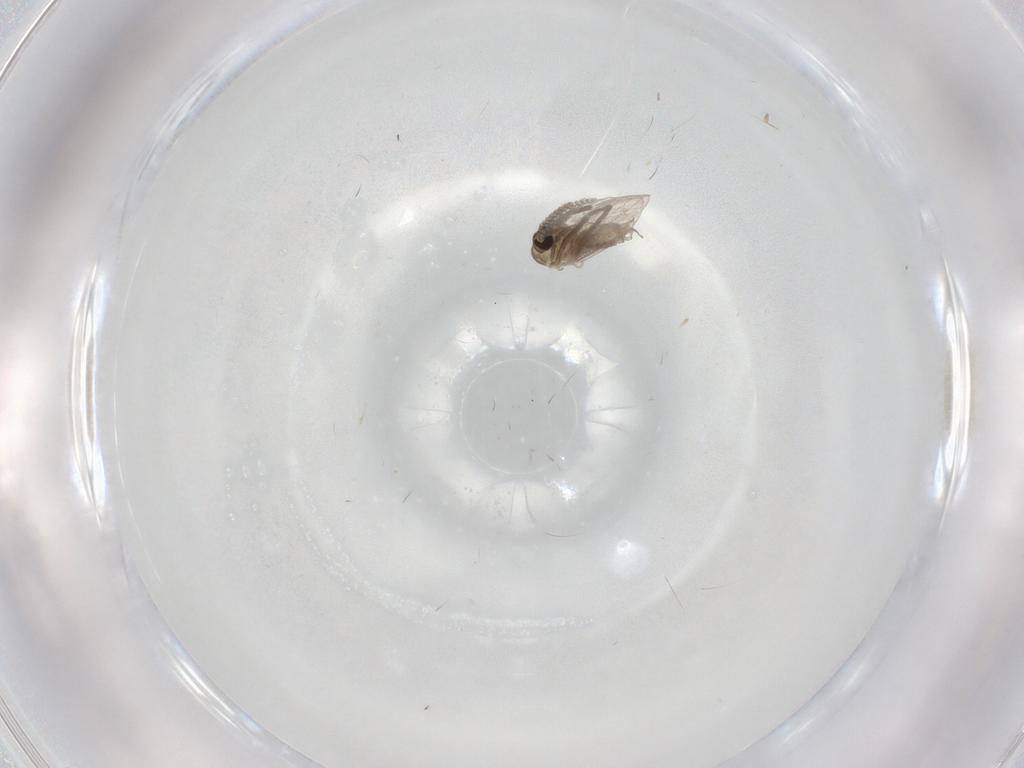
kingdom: Animalia
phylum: Arthropoda
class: Insecta
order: Diptera
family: Psychodidae
